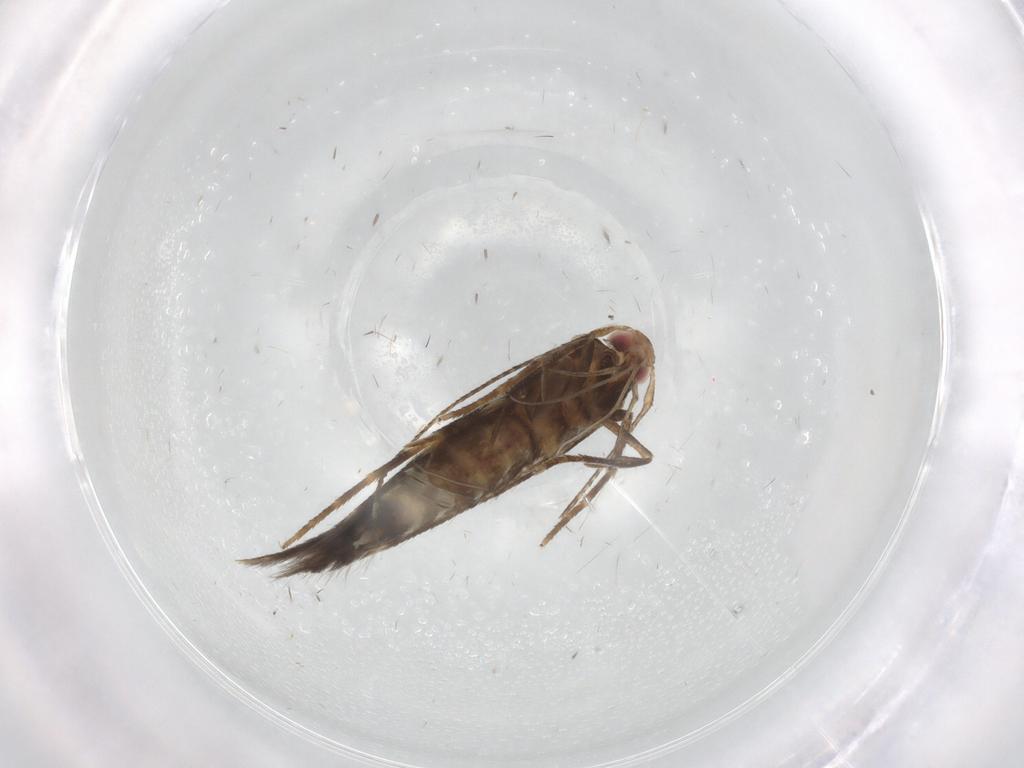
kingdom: Animalia
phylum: Arthropoda
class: Insecta
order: Lepidoptera
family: Cosmopterigidae
